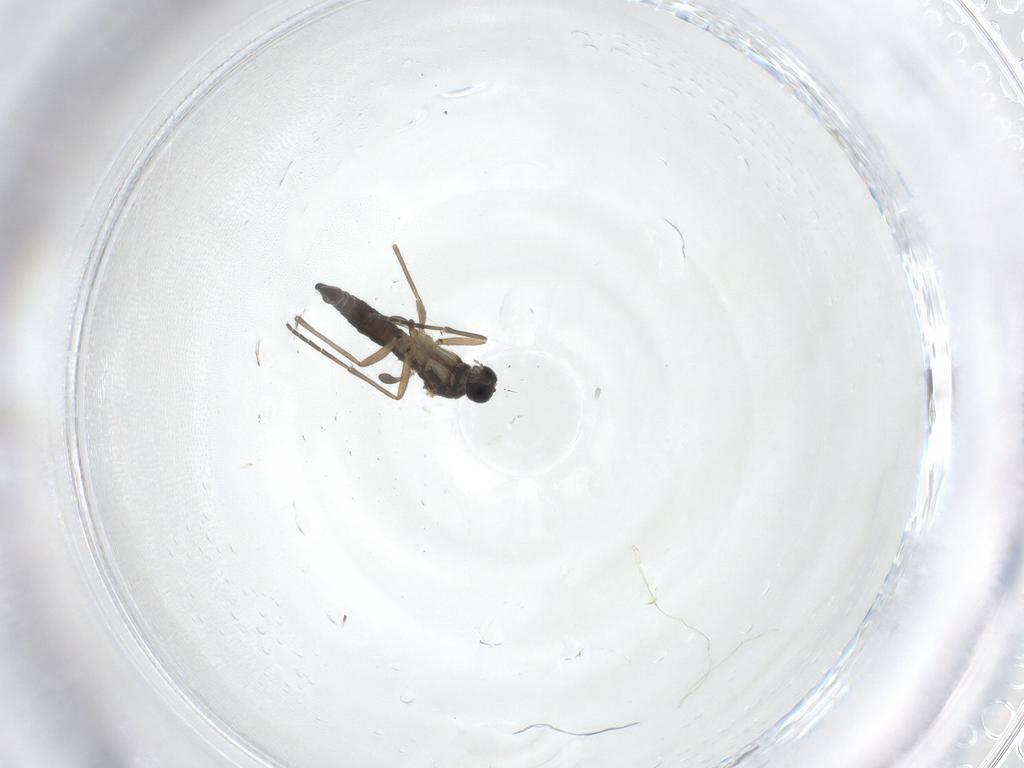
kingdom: Animalia
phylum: Arthropoda
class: Insecta
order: Diptera
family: Sciaridae
